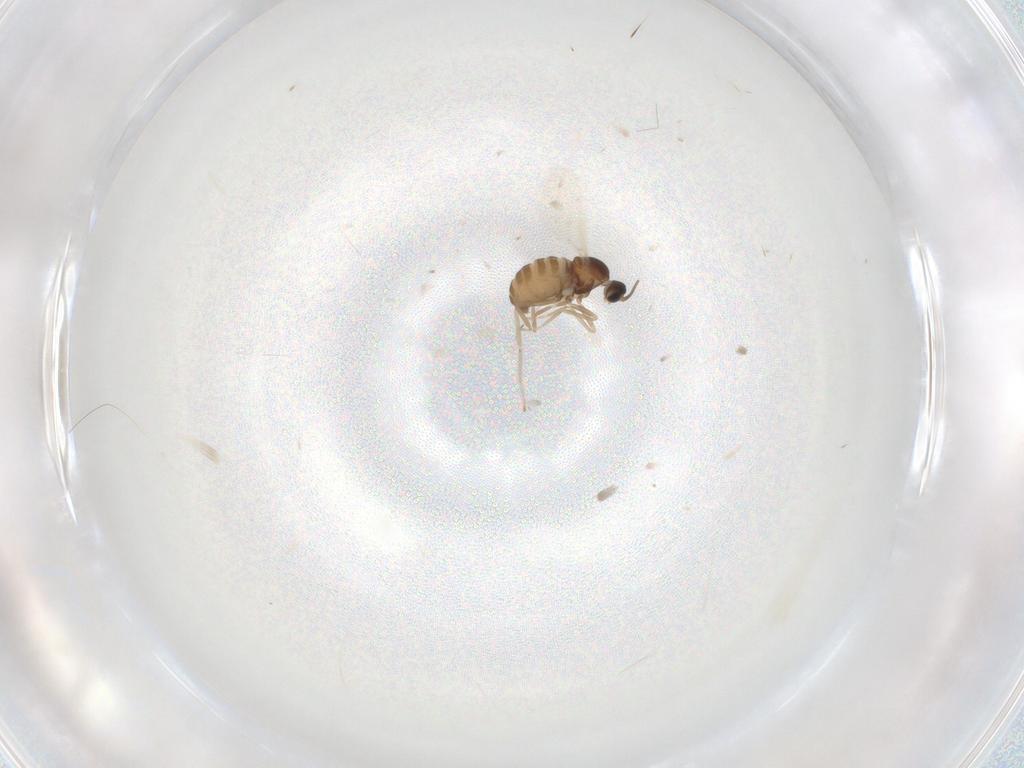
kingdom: Animalia
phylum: Arthropoda
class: Insecta
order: Diptera
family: Cecidomyiidae
